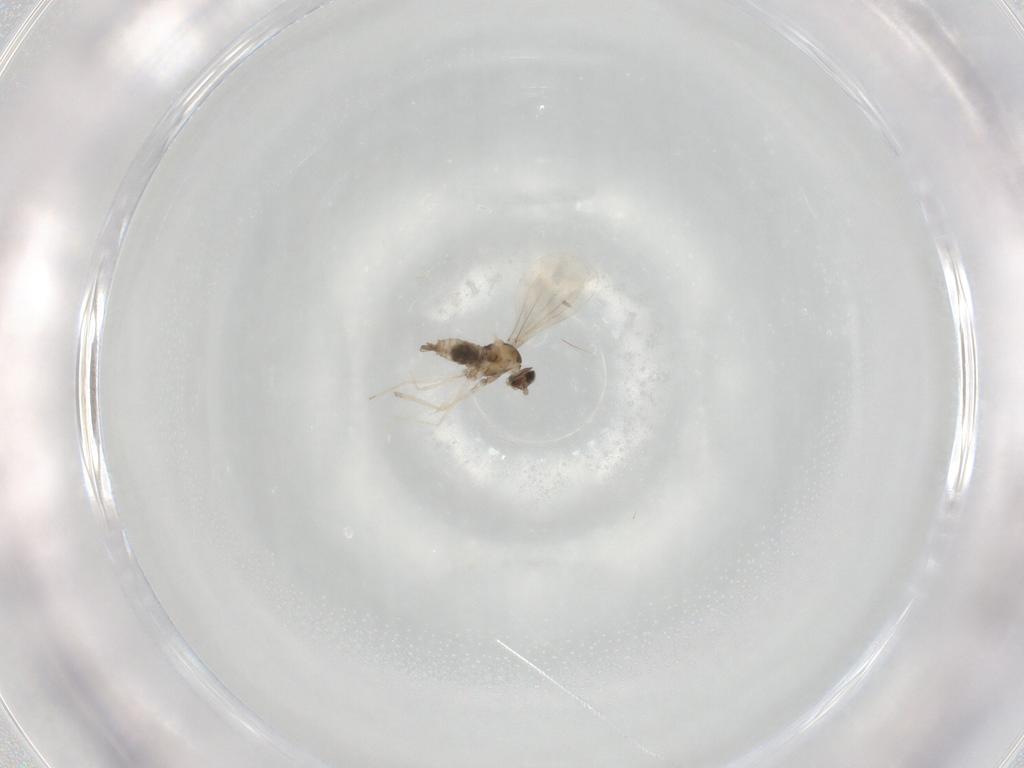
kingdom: Animalia
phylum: Arthropoda
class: Insecta
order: Diptera
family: Cecidomyiidae
